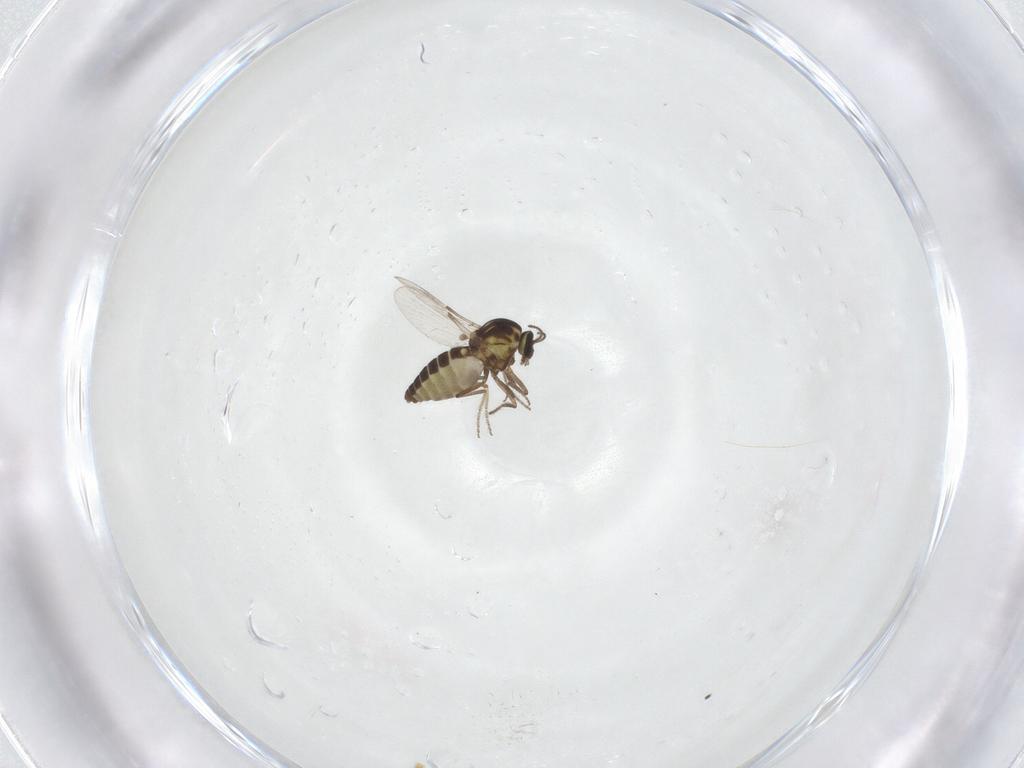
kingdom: Animalia
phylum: Arthropoda
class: Insecta
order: Diptera
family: Ceratopogonidae
